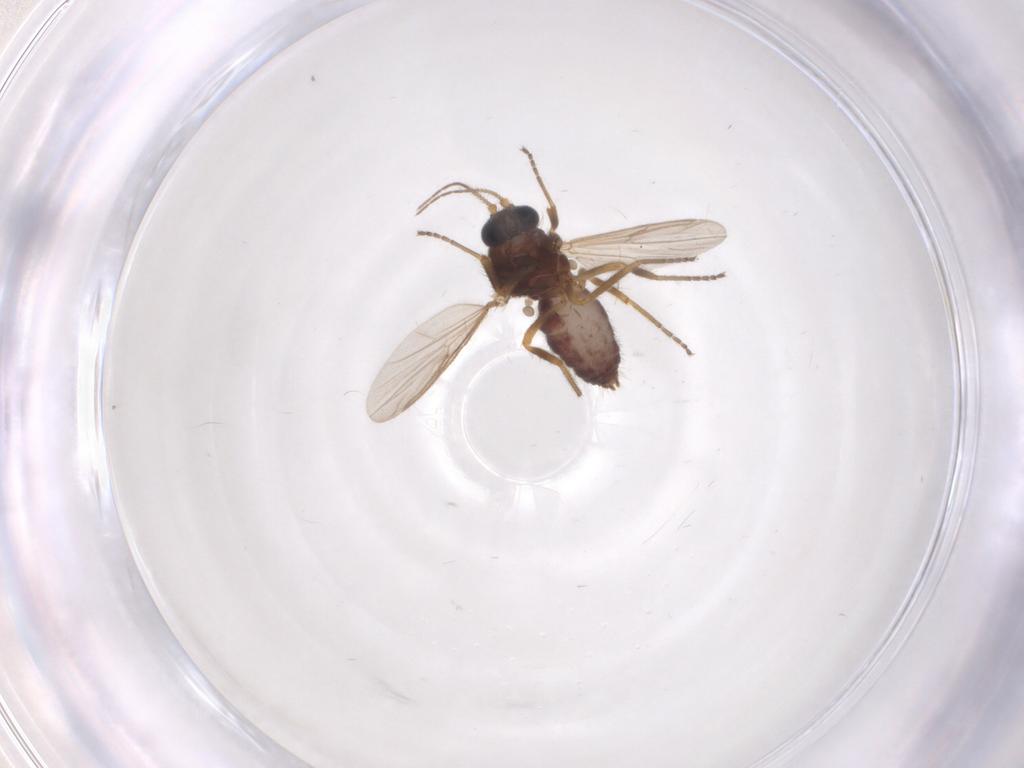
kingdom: Animalia
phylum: Arthropoda
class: Insecta
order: Diptera
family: Ceratopogonidae
